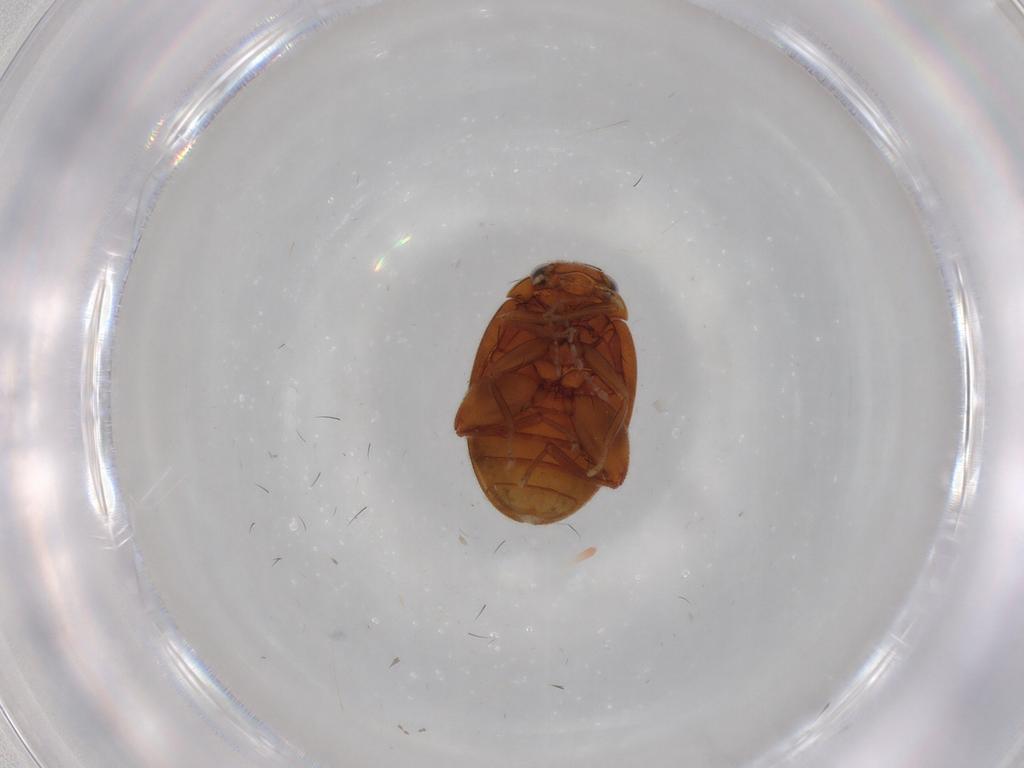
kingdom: Animalia
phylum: Arthropoda
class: Insecta
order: Coleoptera
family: Scirtidae
